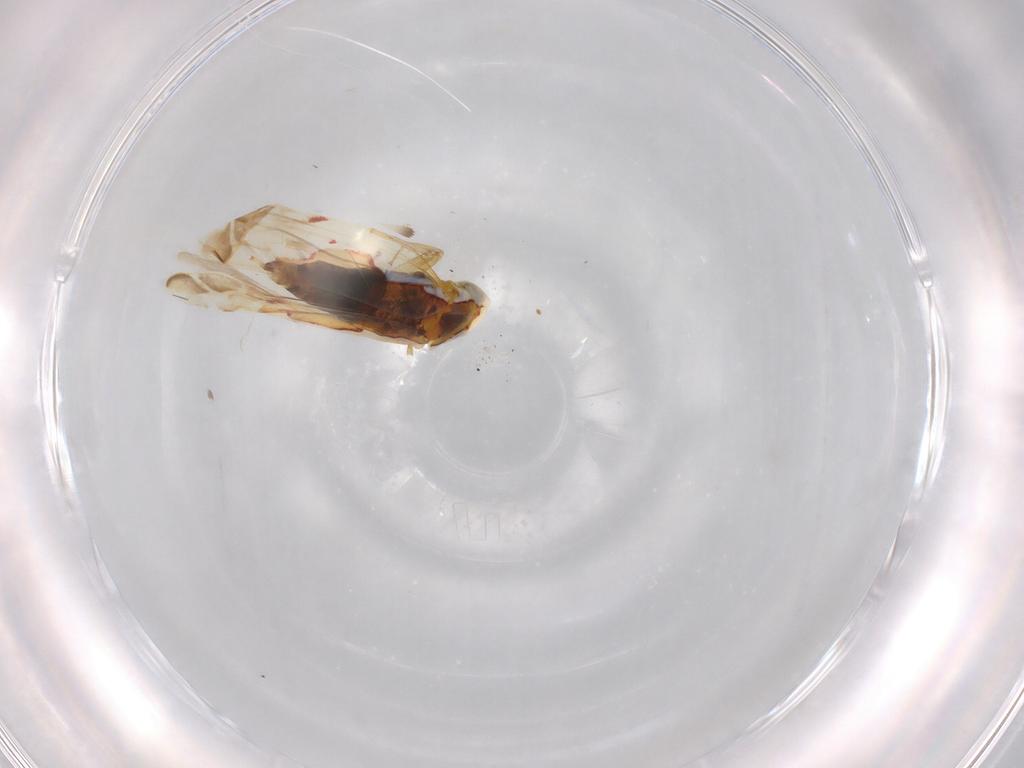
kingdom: Animalia
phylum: Arthropoda
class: Insecta
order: Hemiptera
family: Cicadellidae
